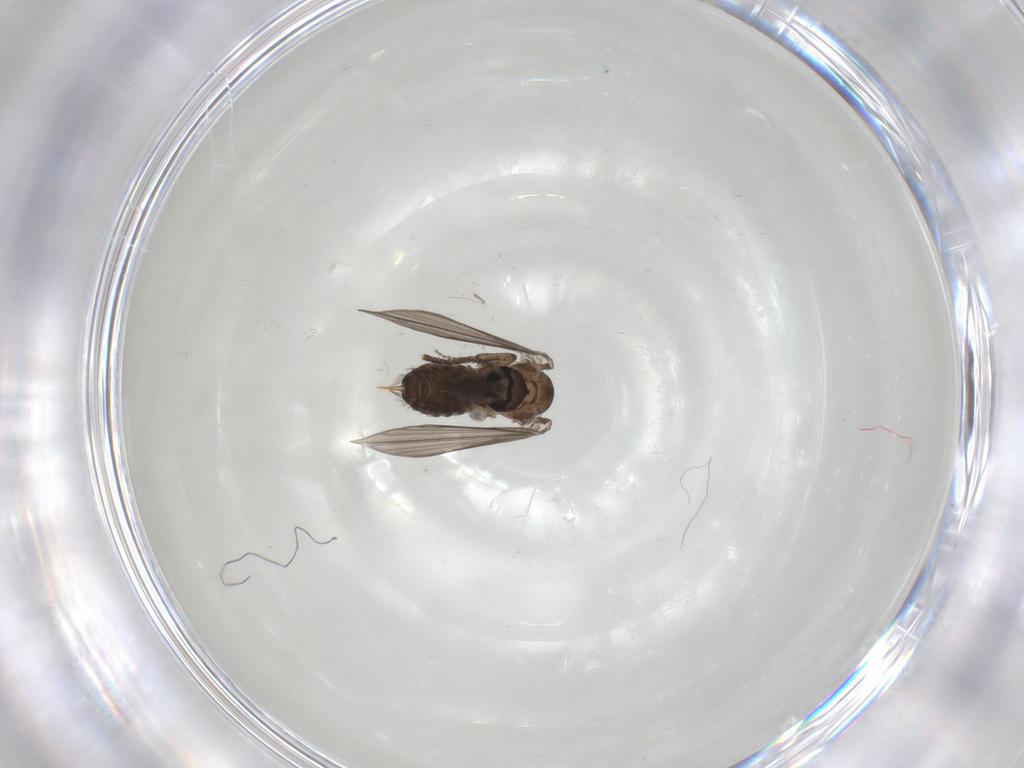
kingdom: Animalia
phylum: Arthropoda
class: Insecta
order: Diptera
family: Psychodidae
